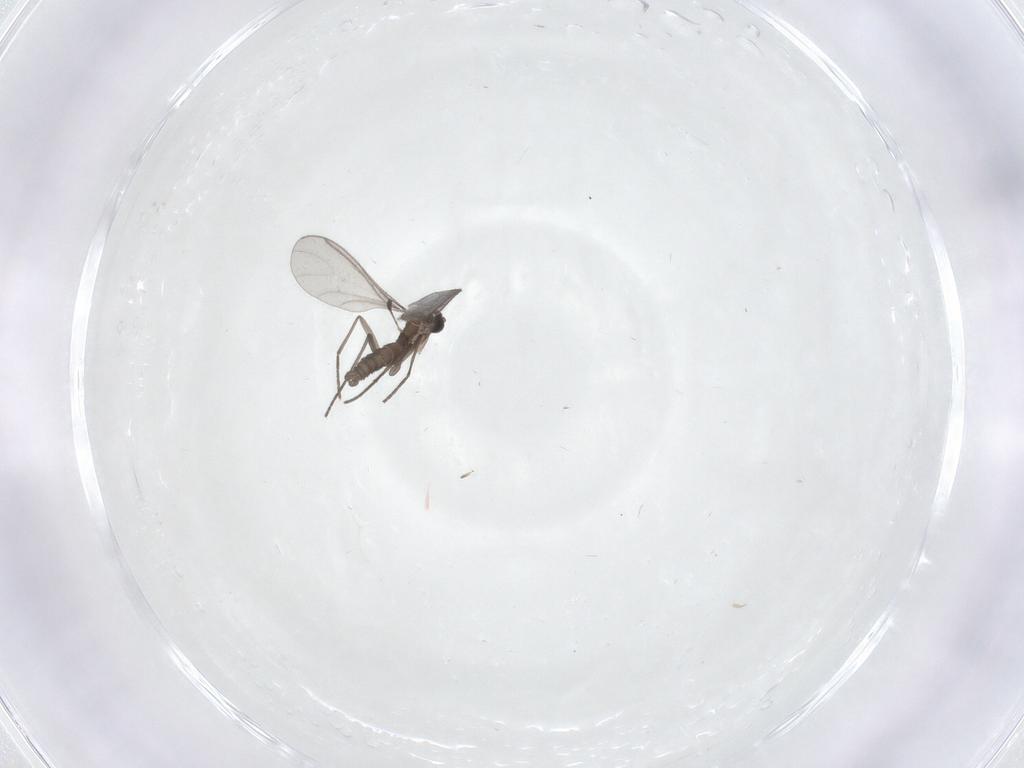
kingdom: Animalia
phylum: Arthropoda
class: Insecta
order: Diptera
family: Sciaridae
